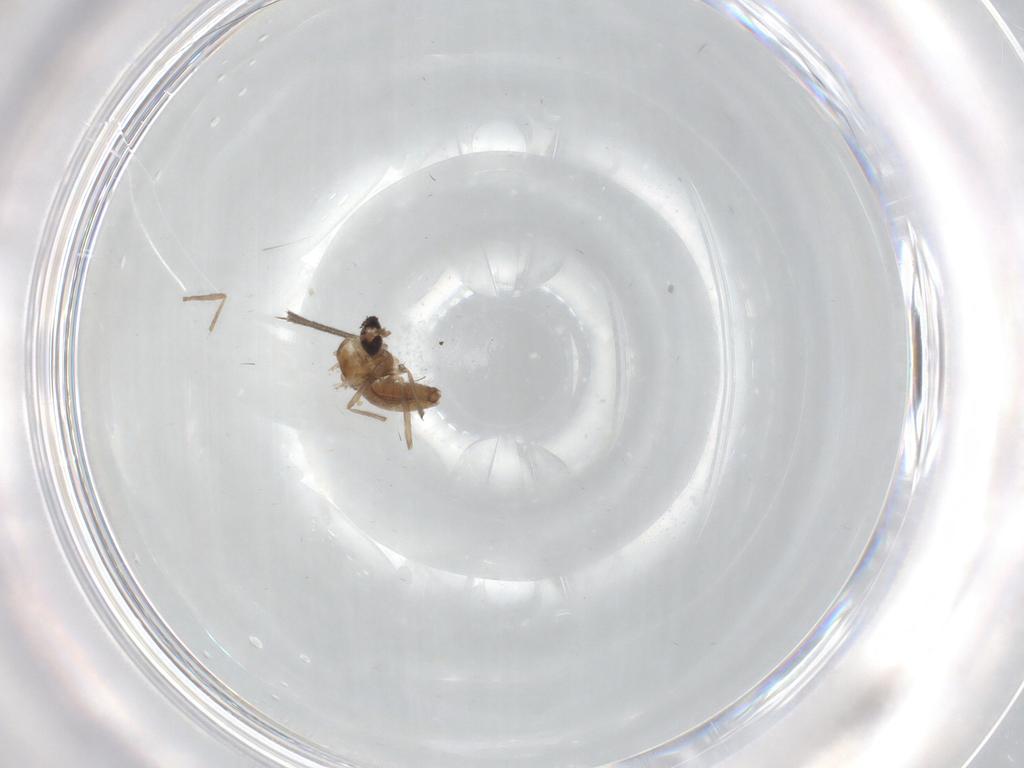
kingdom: Animalia
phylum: Arthropoda
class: Insecta
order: Diptera
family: Chironomidae
